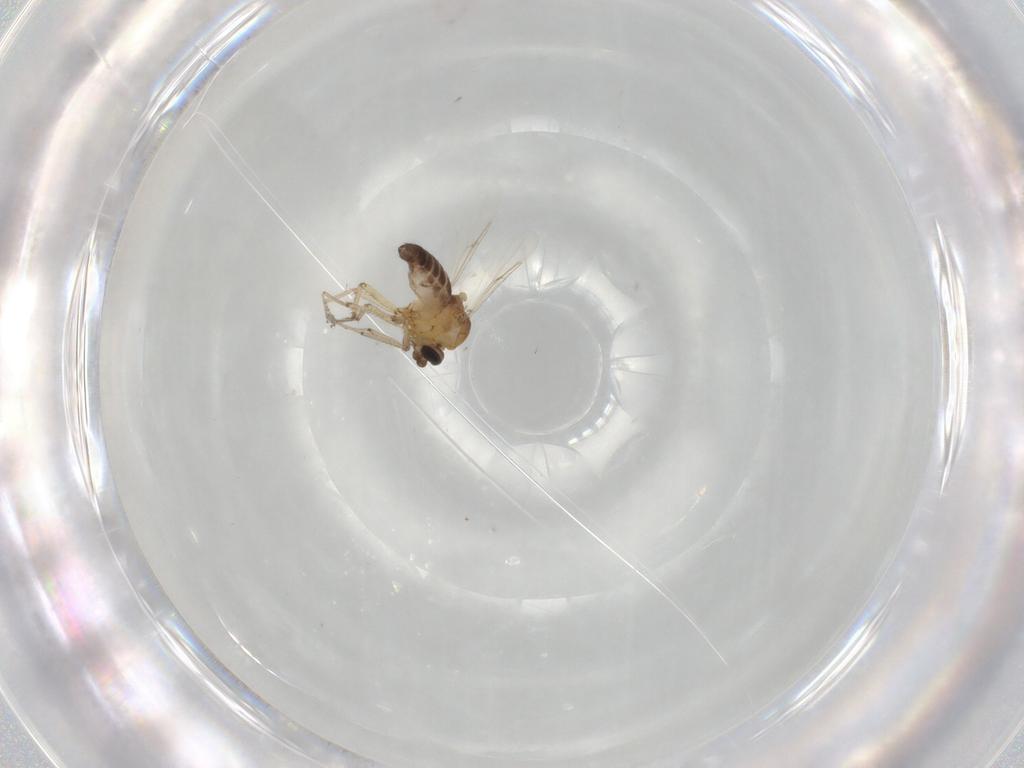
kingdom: Animalia
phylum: Arthropoda
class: Insecta
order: Diptera
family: Ceratopogonidae
